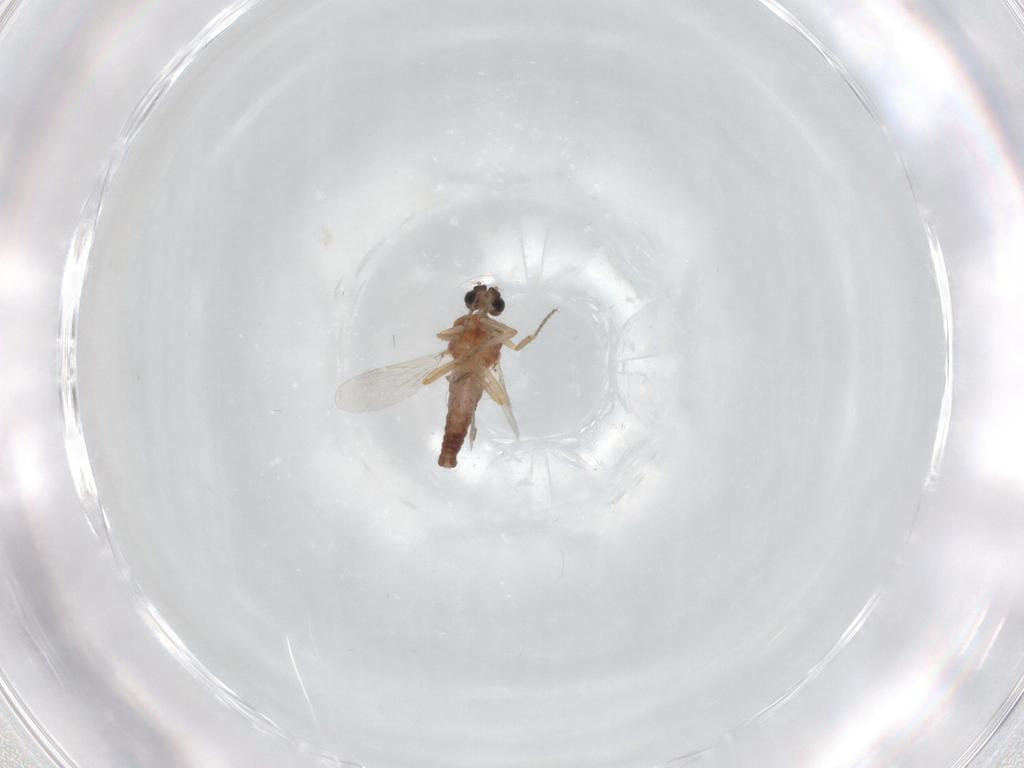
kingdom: Animalia
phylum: Arthropoda
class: Insecta
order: Diptera
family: Ceratopogonidae
